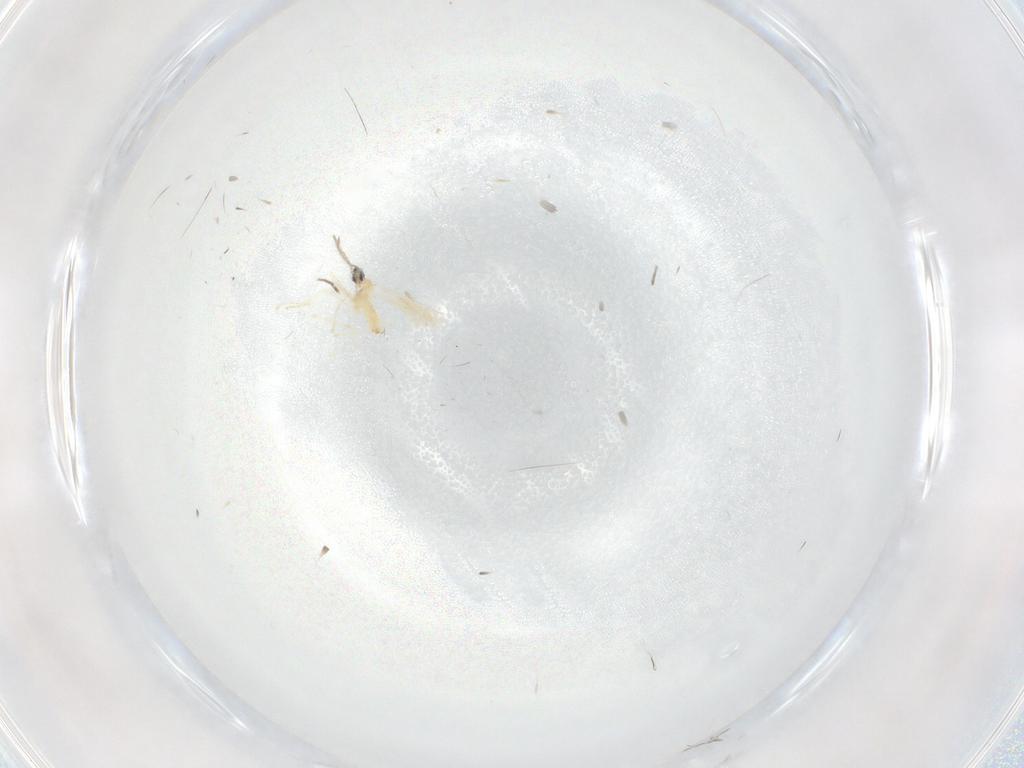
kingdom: Animalia
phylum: Arthropoda
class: Insecta
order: Diptera
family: Cecidomyiidae
